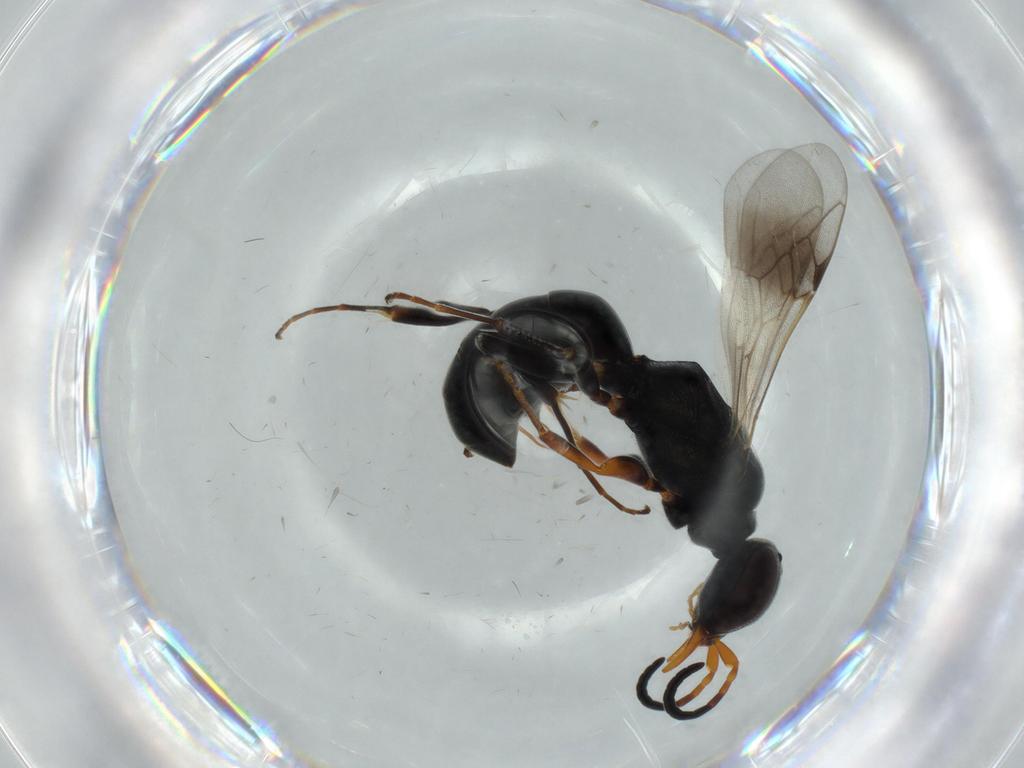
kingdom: Animalia
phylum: Arthropoda
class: Insecta
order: Hymenoptera
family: Crabronidae
